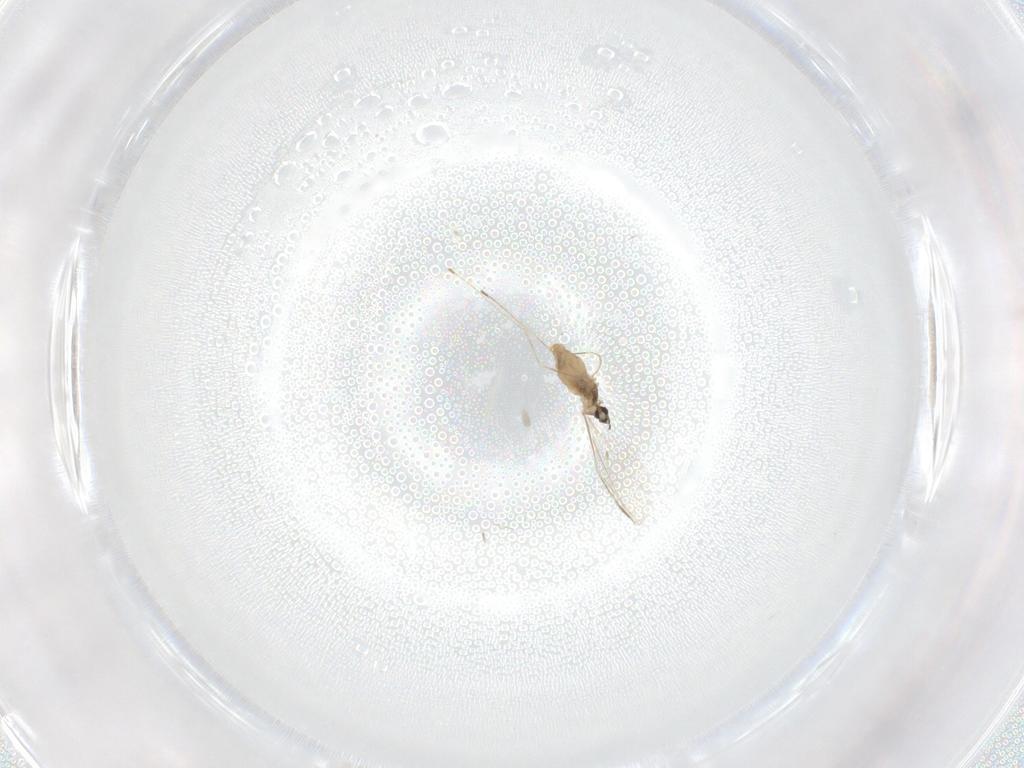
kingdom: Animalia
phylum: Arthropoda
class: Insecta
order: Diptera
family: Cecidomyiidae
